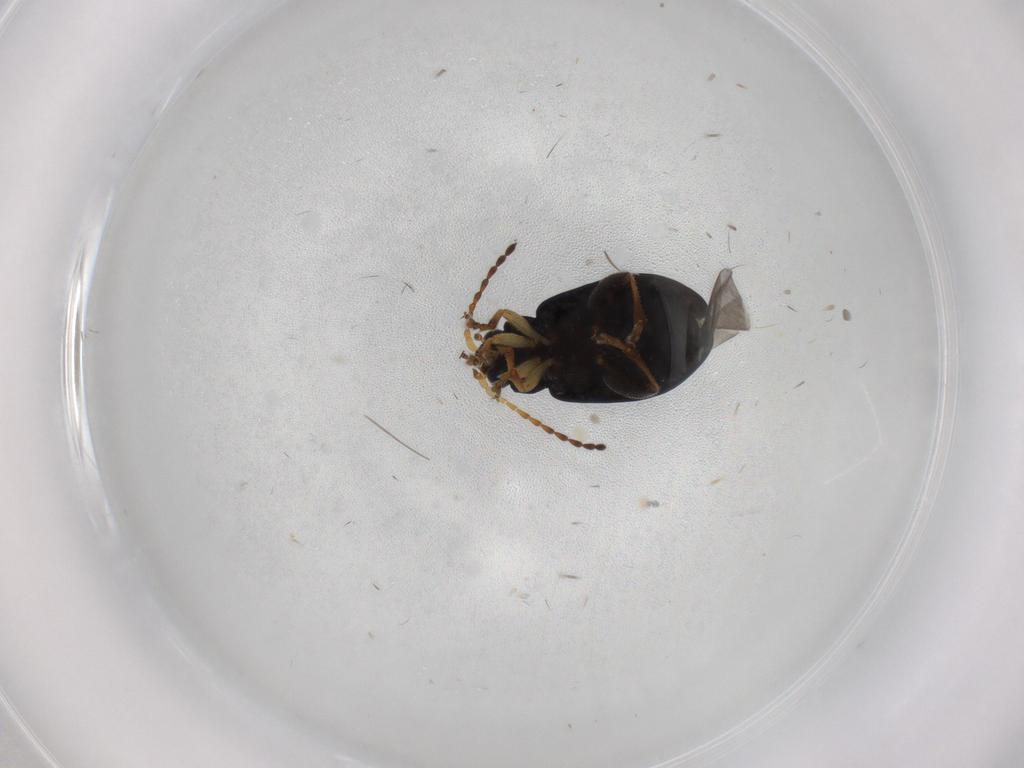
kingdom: Animalia
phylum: Arthropoda
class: Insecta
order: Coleoptera
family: Chrysomelidae
